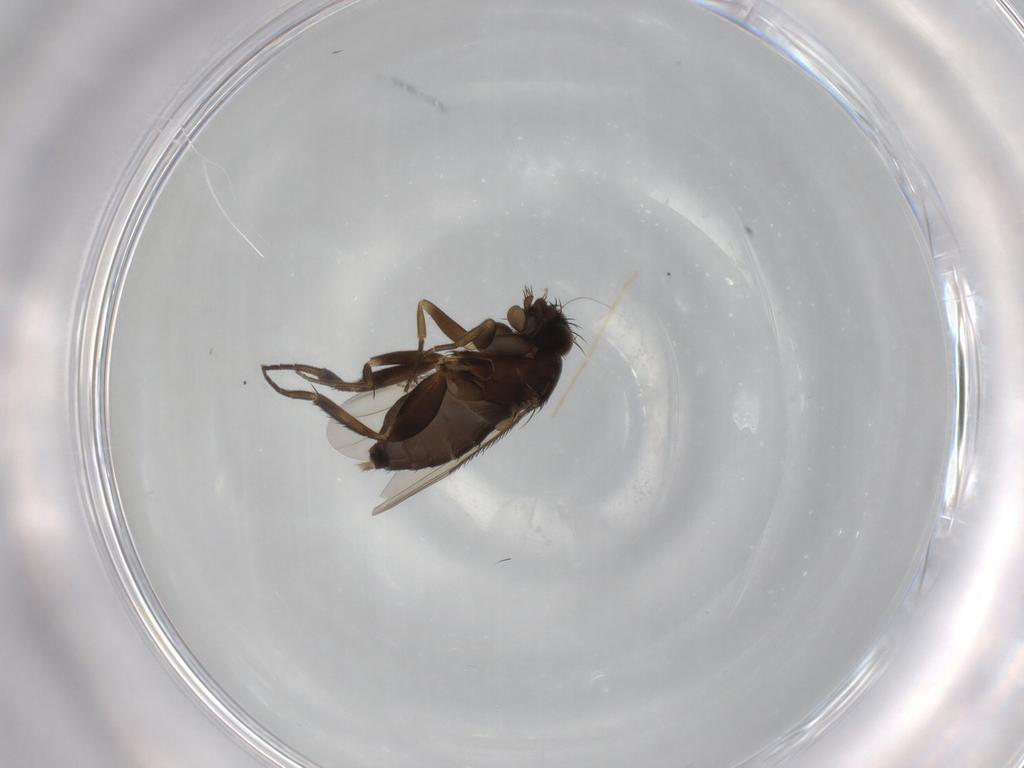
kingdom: Animalia
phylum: Arthropoda
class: Insecta
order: Diptera
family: Phoridae
